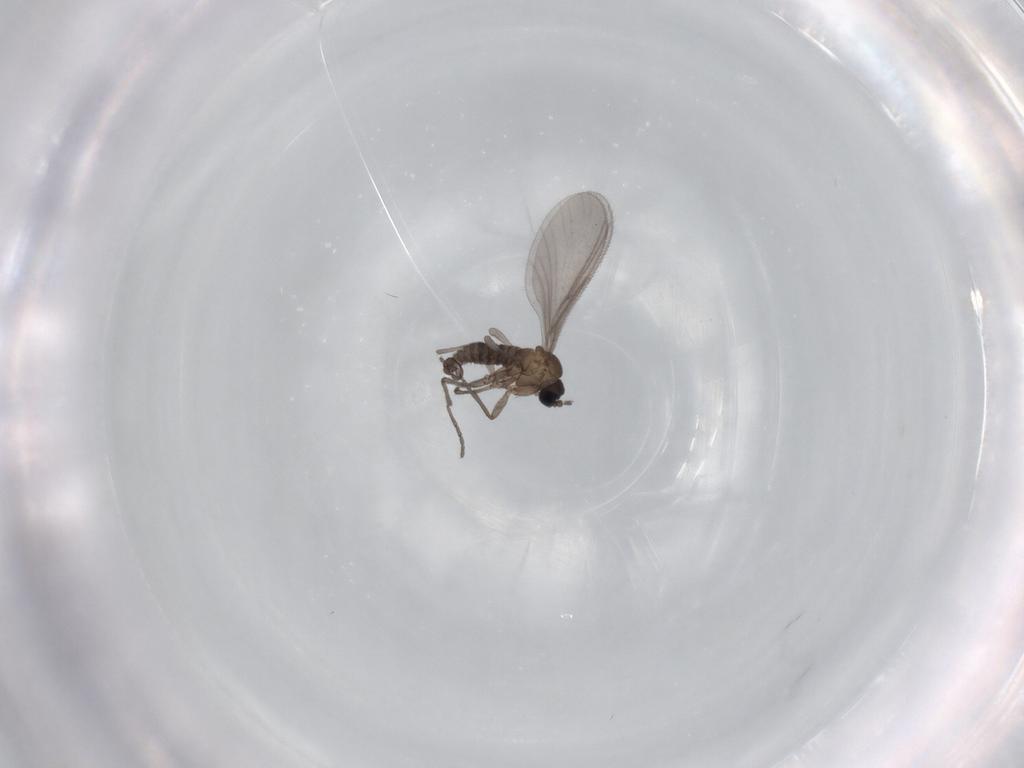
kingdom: Animalia
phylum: Arthropoda
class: Insecta
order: Diptera
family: Sciaridae
